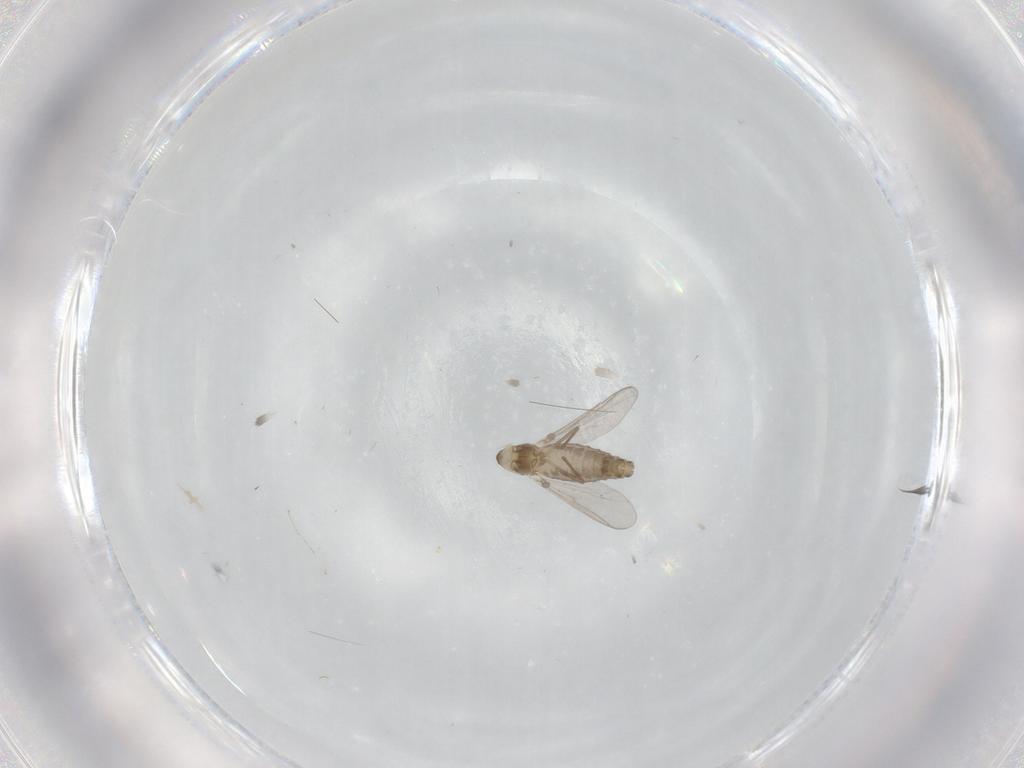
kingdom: Animalia
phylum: Arthropoda
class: Insecta
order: Diptera
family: Chironomidae
